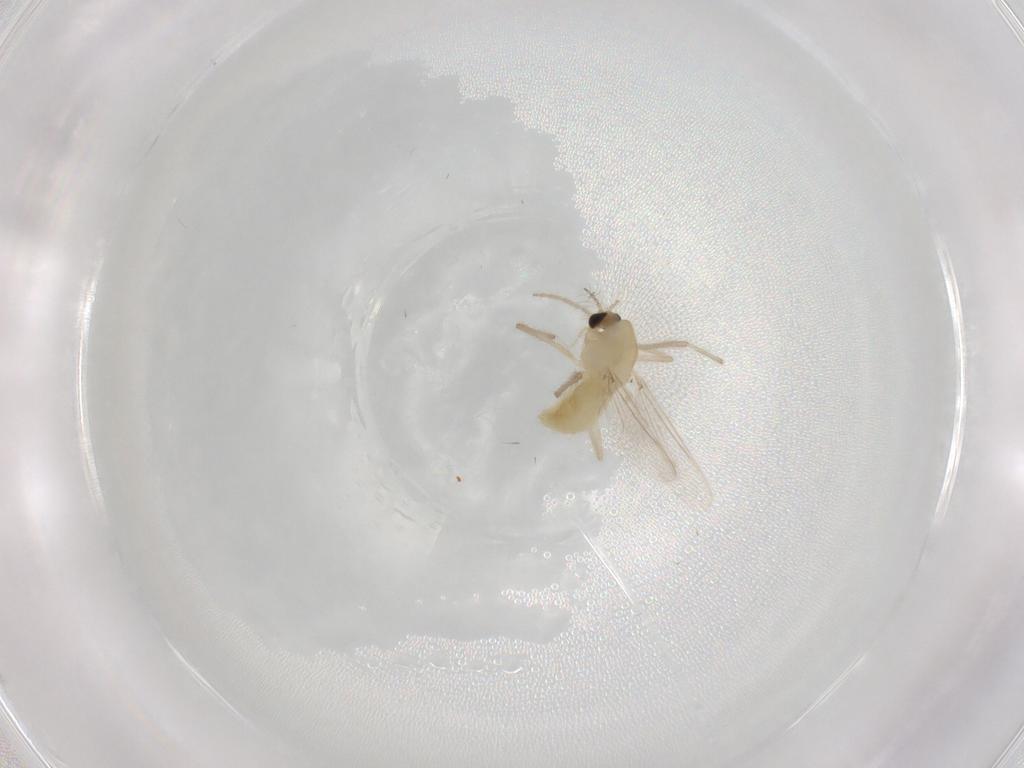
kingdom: Animalia
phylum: Arthropoda
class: Insecta
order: Diptera
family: Chironomidae
